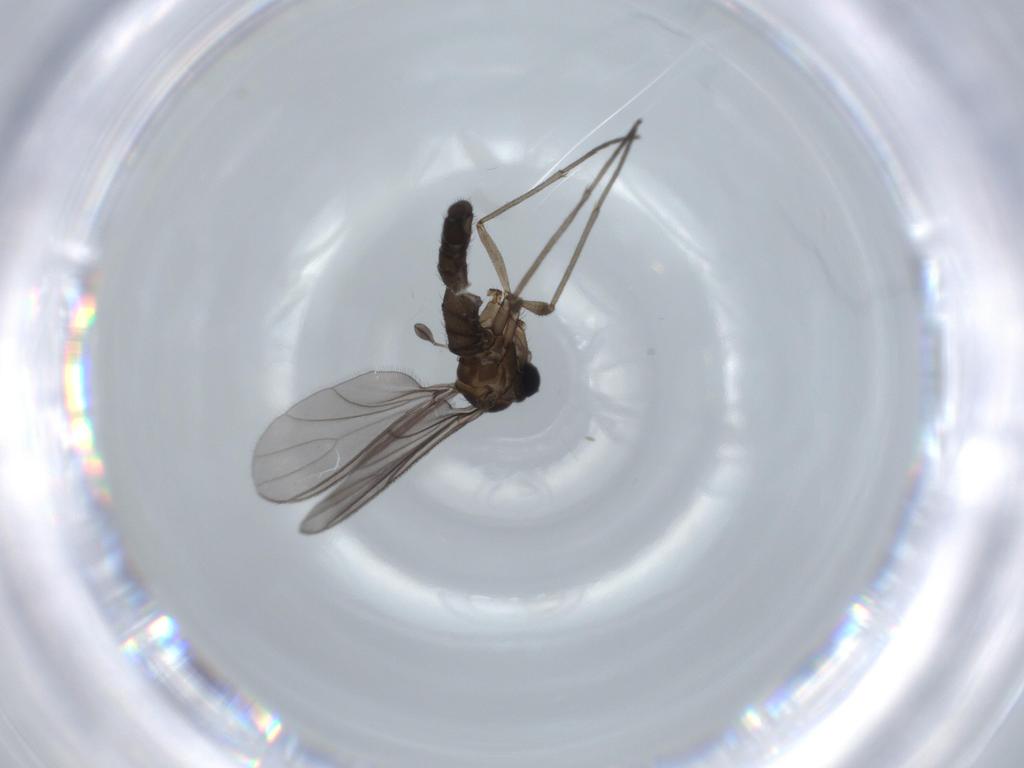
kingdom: Animalia
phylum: Arthropoda
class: Insecta
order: Diptera
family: Sciaridae
